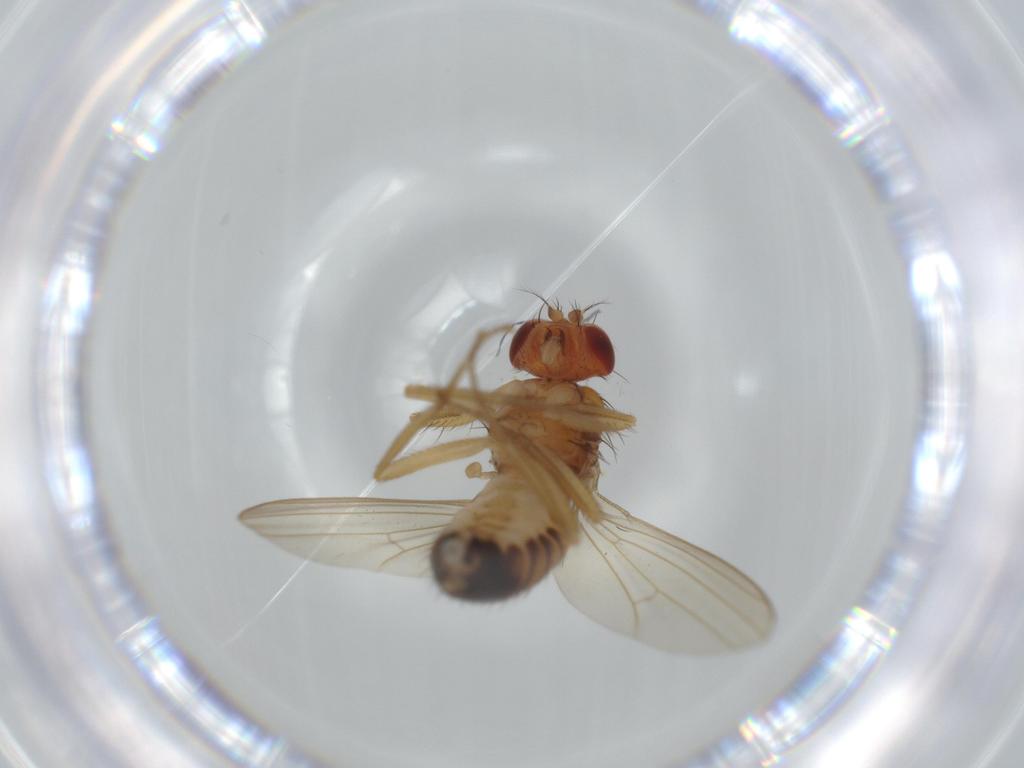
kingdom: Animalia
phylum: Arthropoda
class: Insecta
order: Diptera
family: Drosophilidae
